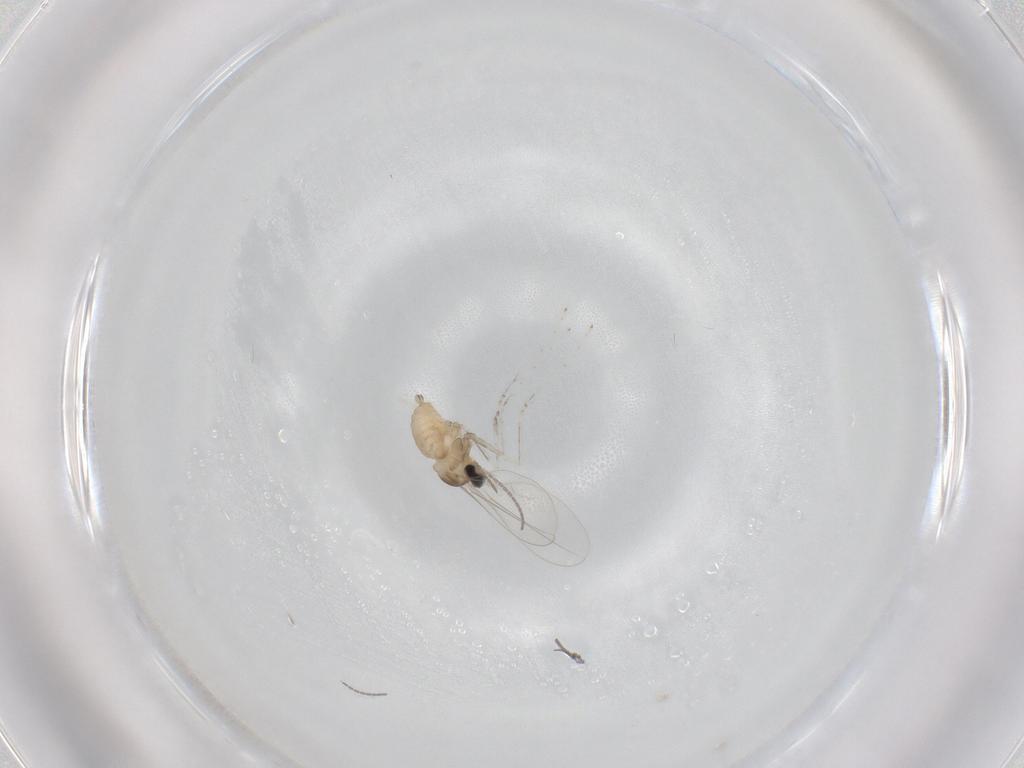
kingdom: Animalia
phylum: Arthropoda
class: Insecta
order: Diptera
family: Cecidomyiidae
